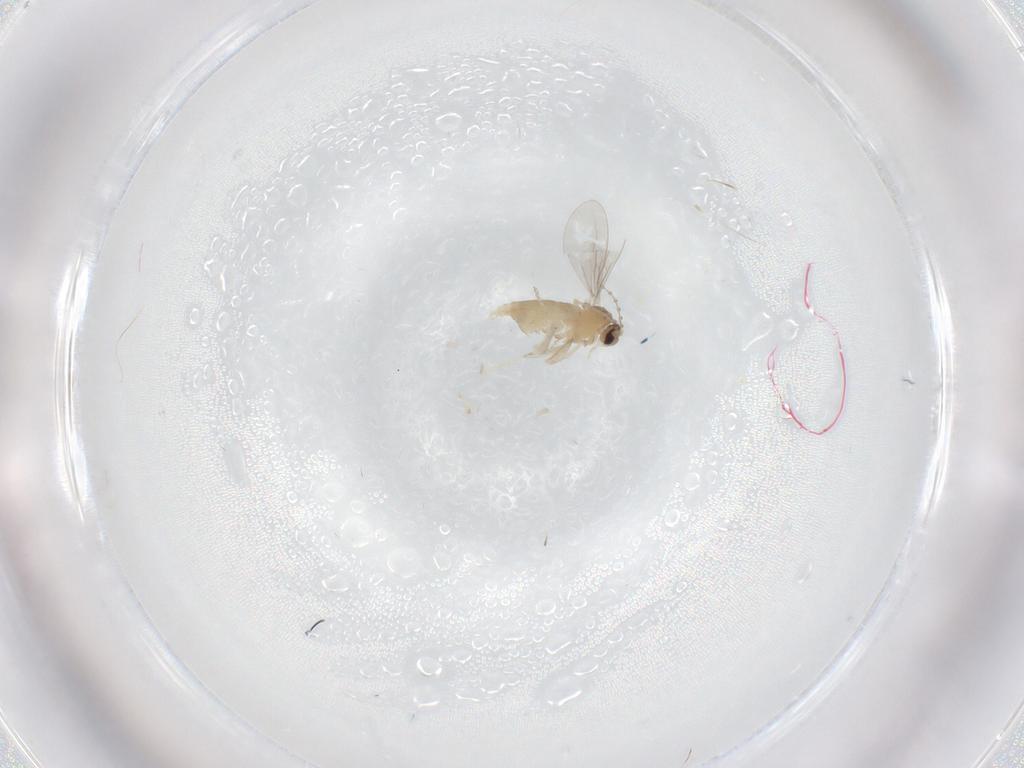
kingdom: Animalia
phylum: Arthropoda
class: Insecta
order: Diptera
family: Cecidomyiidae
